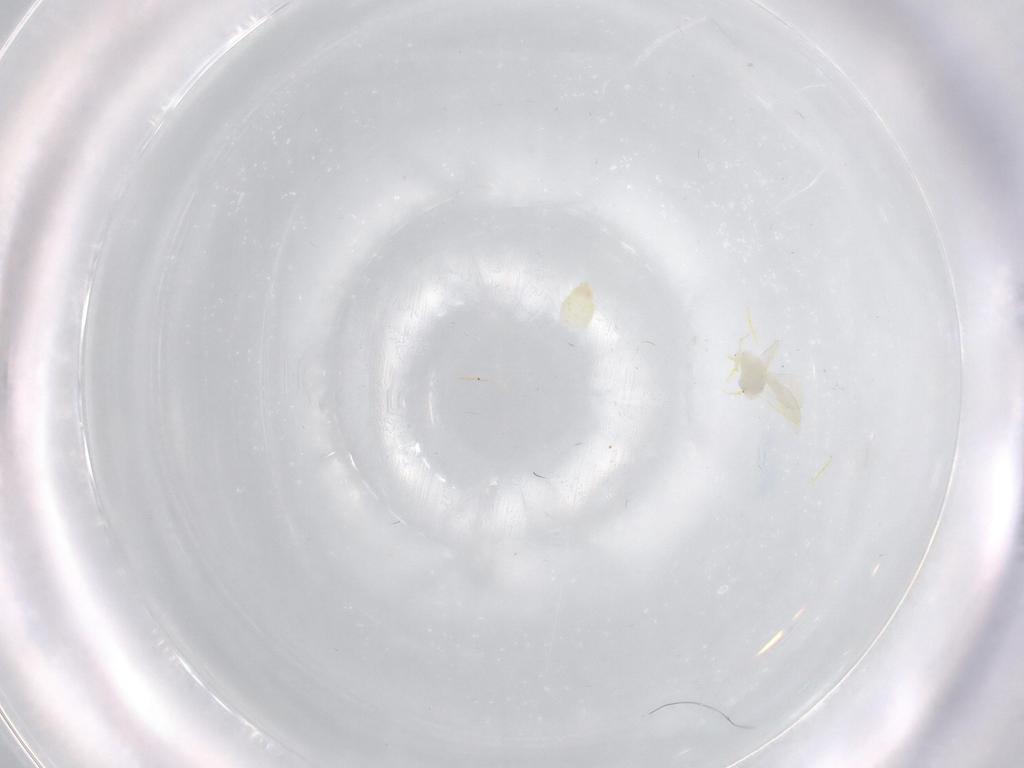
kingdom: Animalia
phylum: Arthropoda
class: Insecta
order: Hemiptera
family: Aleyrodidae
